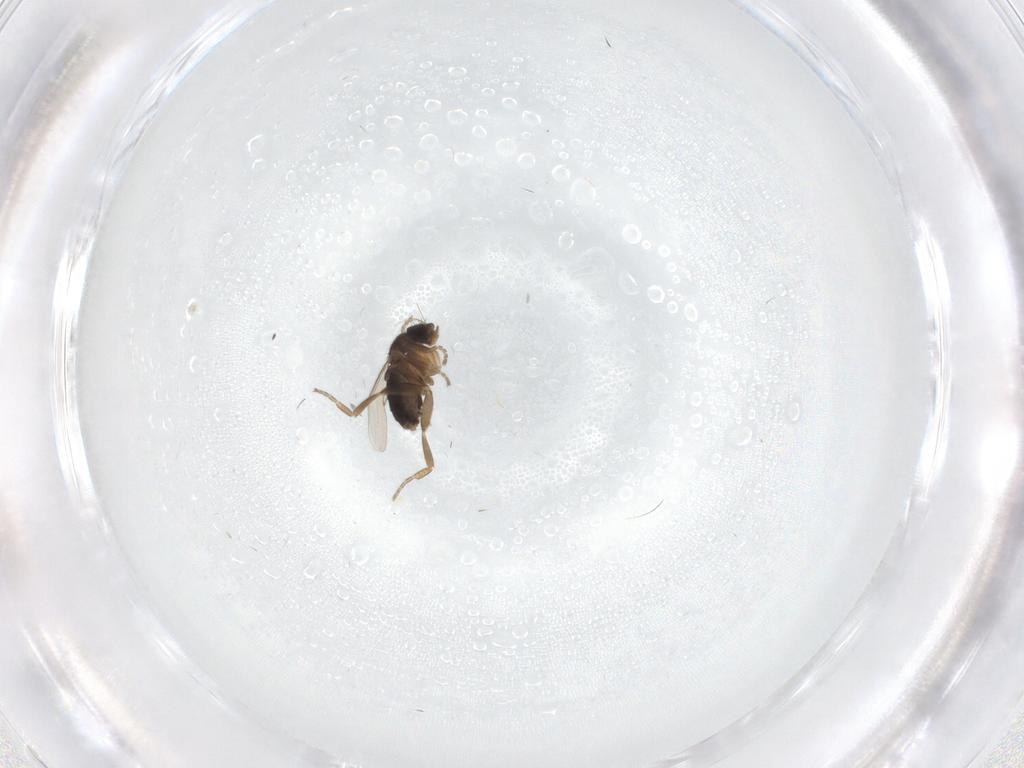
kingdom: Animalia
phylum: Arthropoda
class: Insecta
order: Diptera
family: Phoridae
